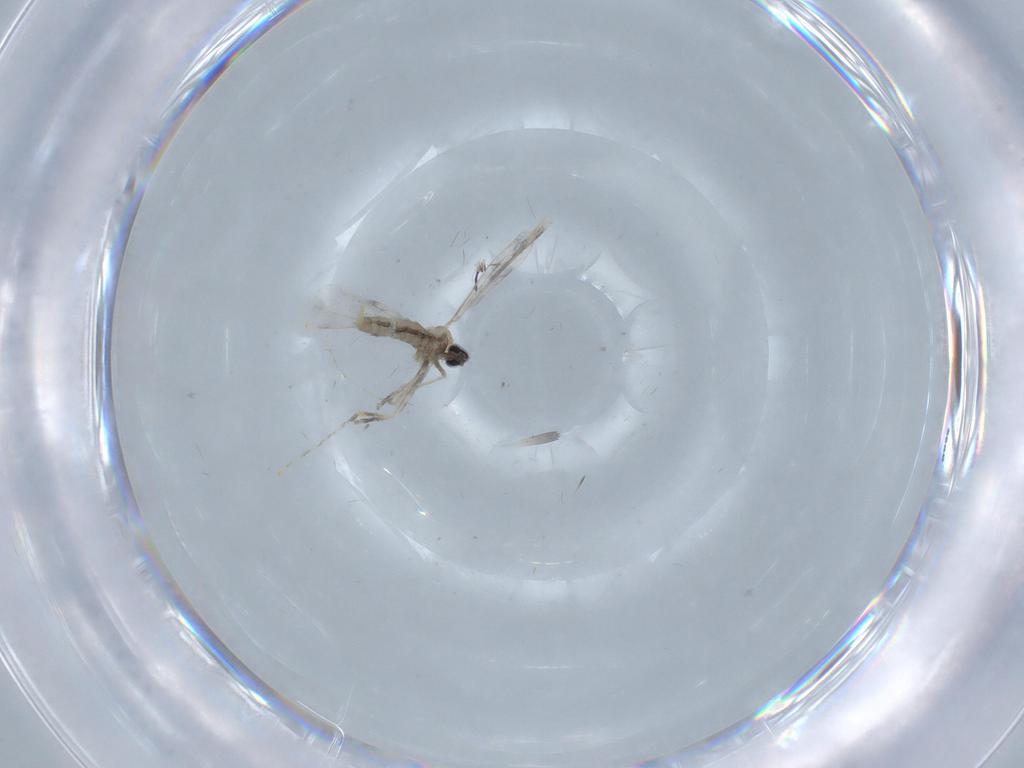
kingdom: Animalia
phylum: Arthropoda
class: Insecta
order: Diptera
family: Cecidomyiidae
